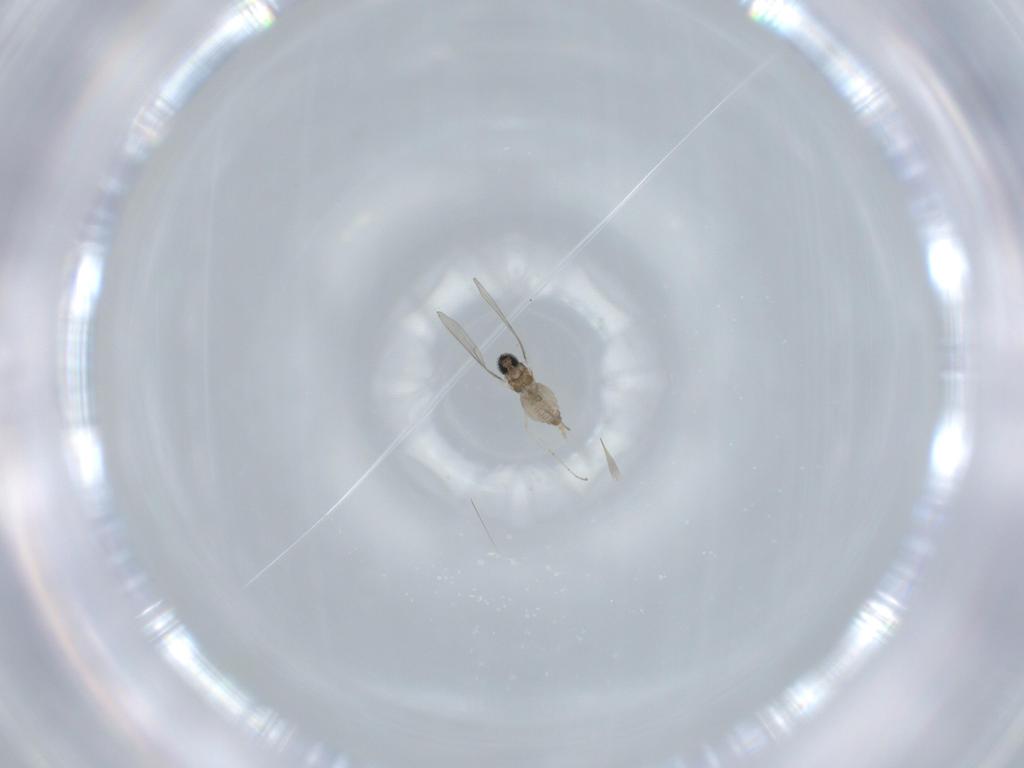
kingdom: Animalia
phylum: Arthropoda
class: Insecta
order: Diptera
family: Cecidomyiidae
